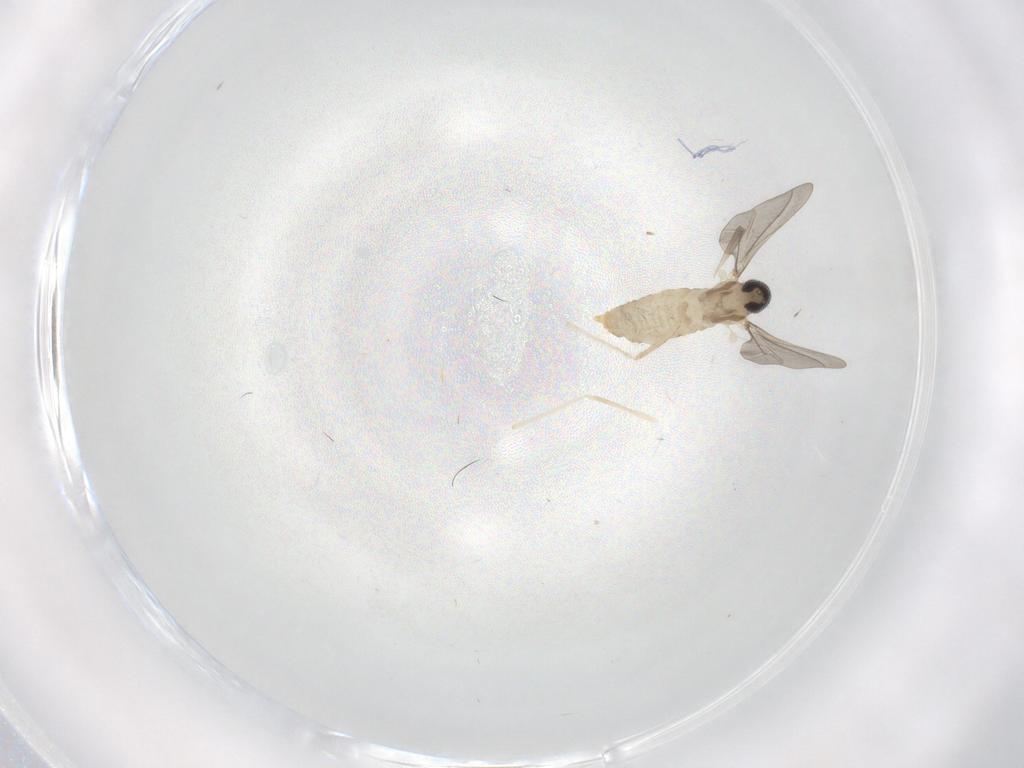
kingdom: Animalia
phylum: Arthropoda
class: Insecta
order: Diptera
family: Cecidomyiidae
